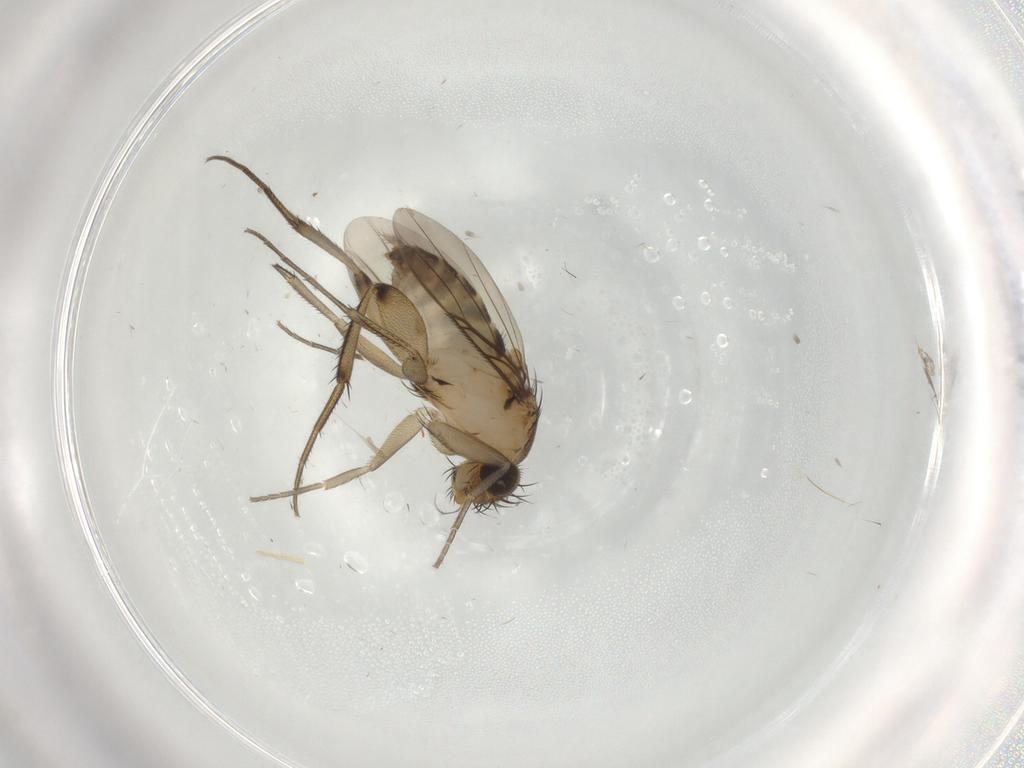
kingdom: Animalia
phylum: Arthropoda
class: Insecta
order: Diptera
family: Phoridae
